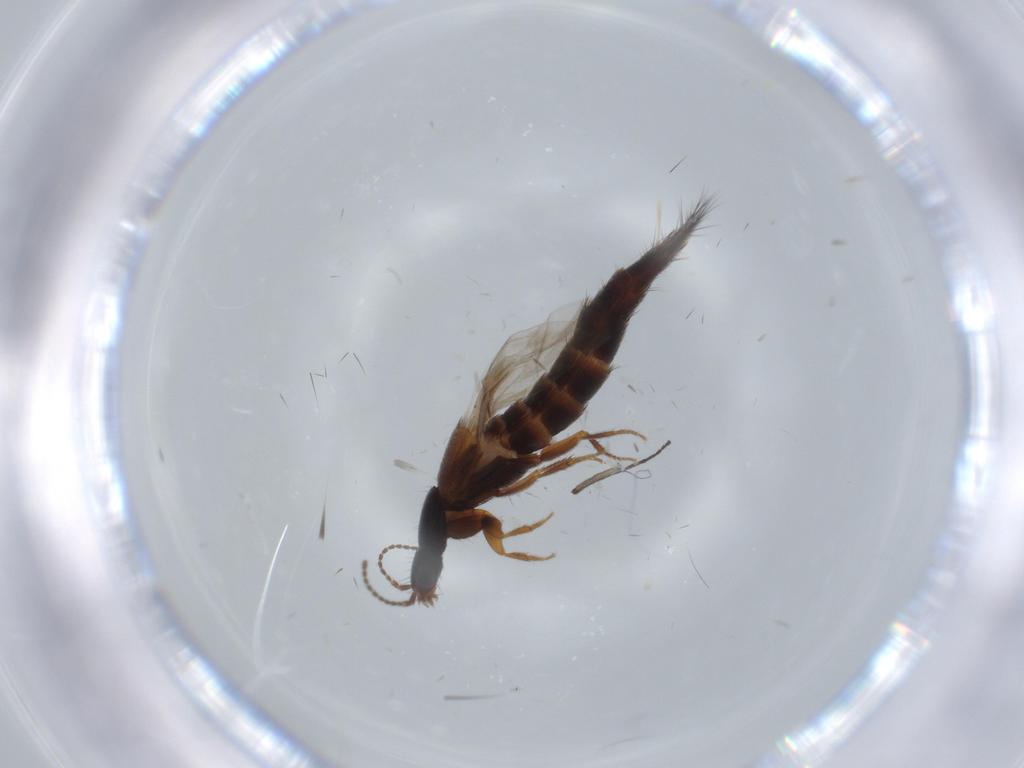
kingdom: Animalia
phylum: Arthropoda
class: Insecta
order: Coleoptera
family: Staphylinidae
